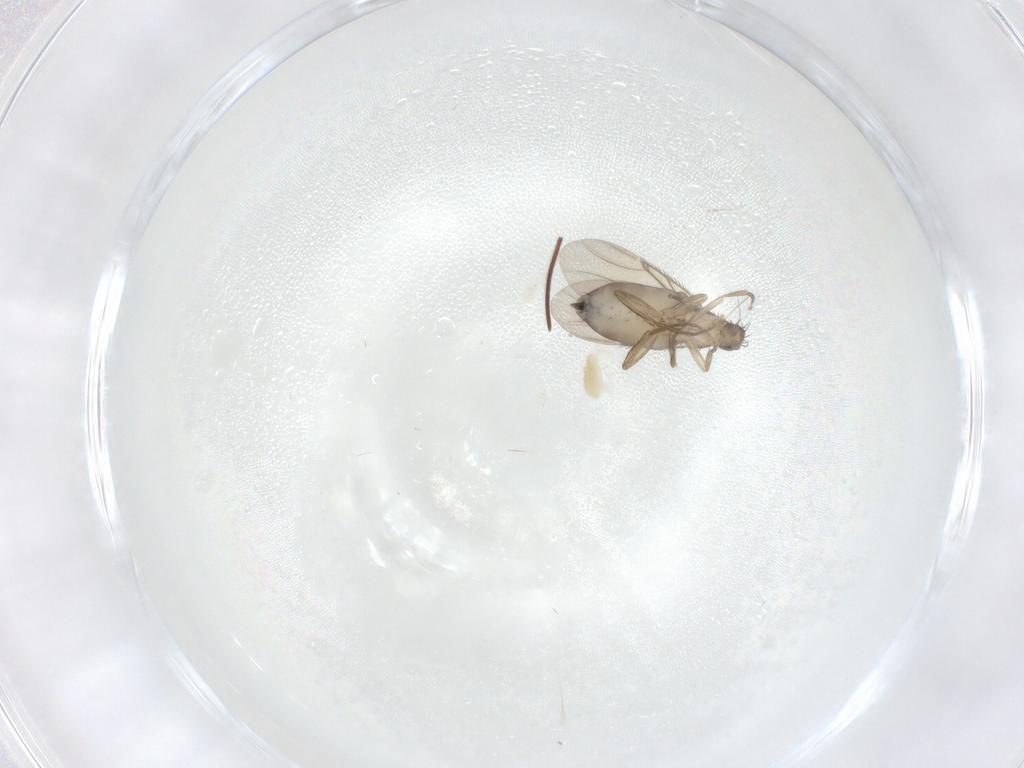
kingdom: Animalia
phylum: Arthropoda
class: Insecta
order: Diptera
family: Phoridae
